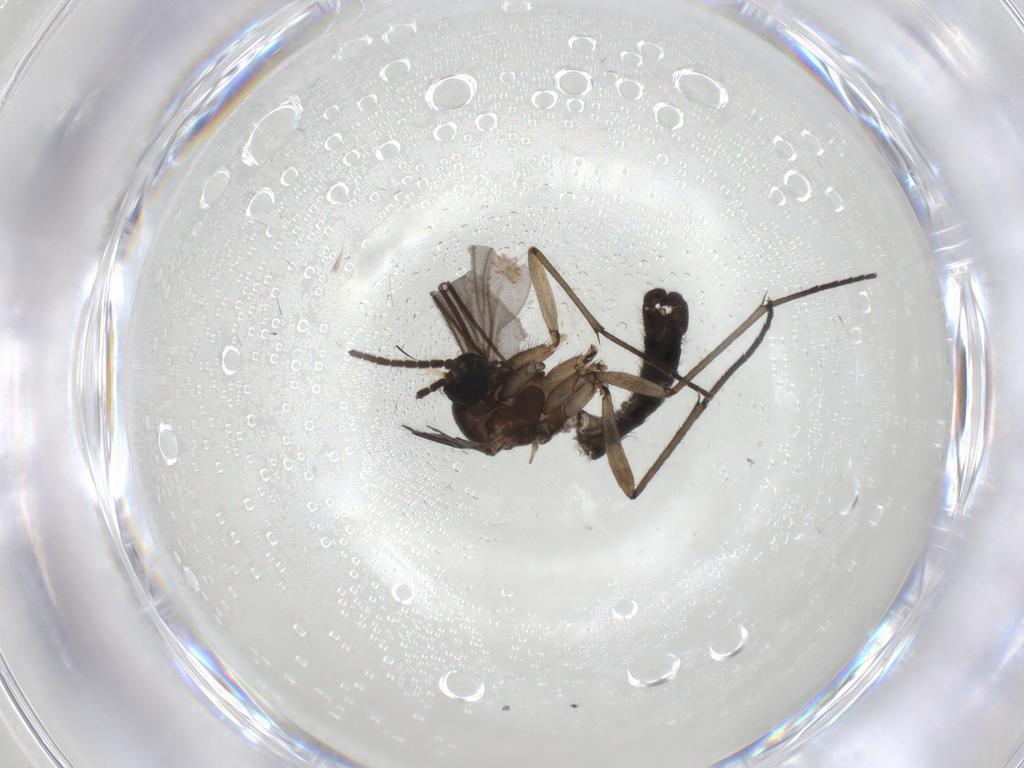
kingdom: Animalia
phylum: Arthropoda
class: Insecta
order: Diptera
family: Sciaridae
